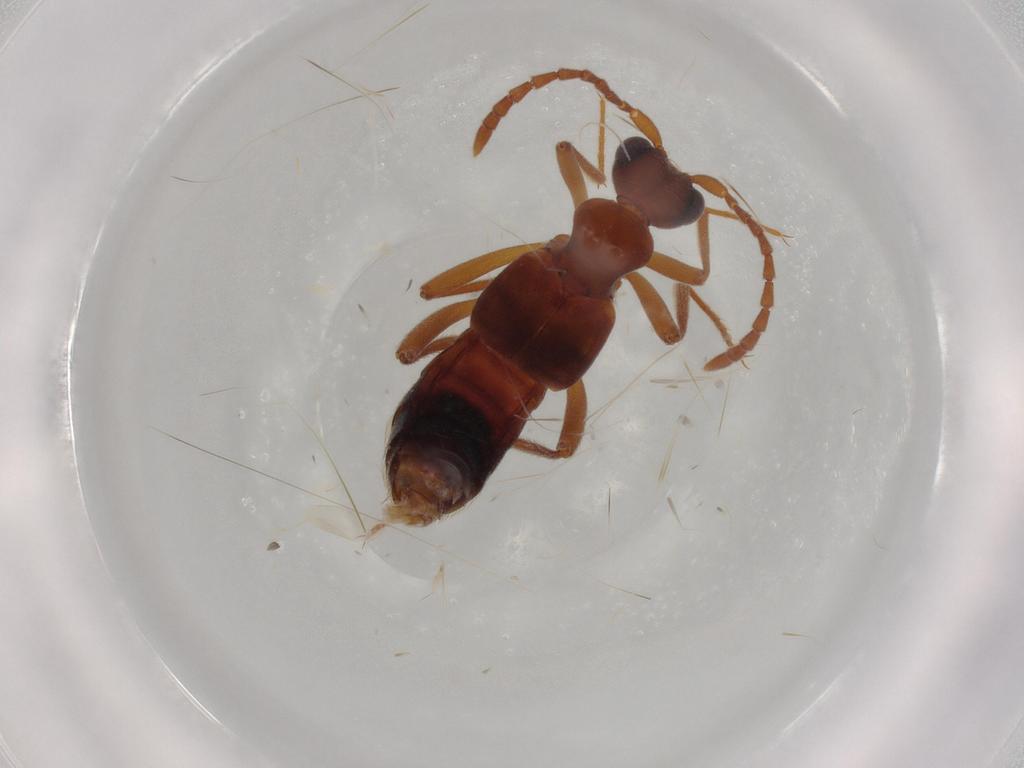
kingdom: Animalia
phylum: Arthropoda
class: Insecta
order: Coleoptera
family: Staphylinidae
